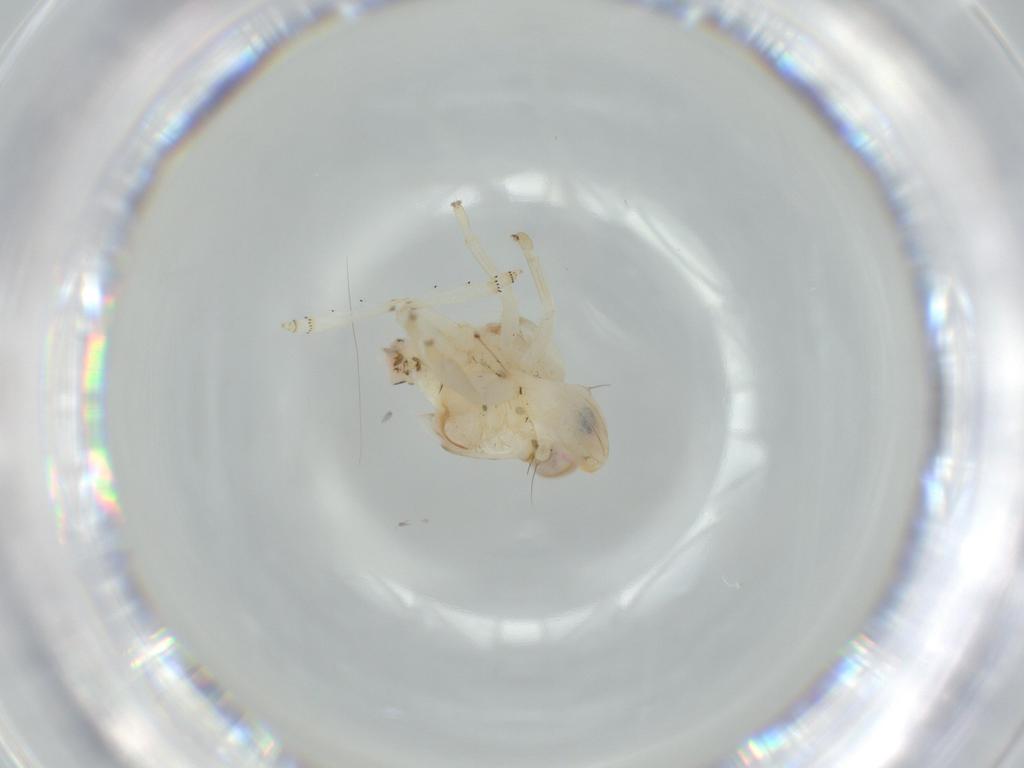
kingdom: Animalia
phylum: Arthropoda
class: Insecta
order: Hemiptera
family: Nogodinidae
